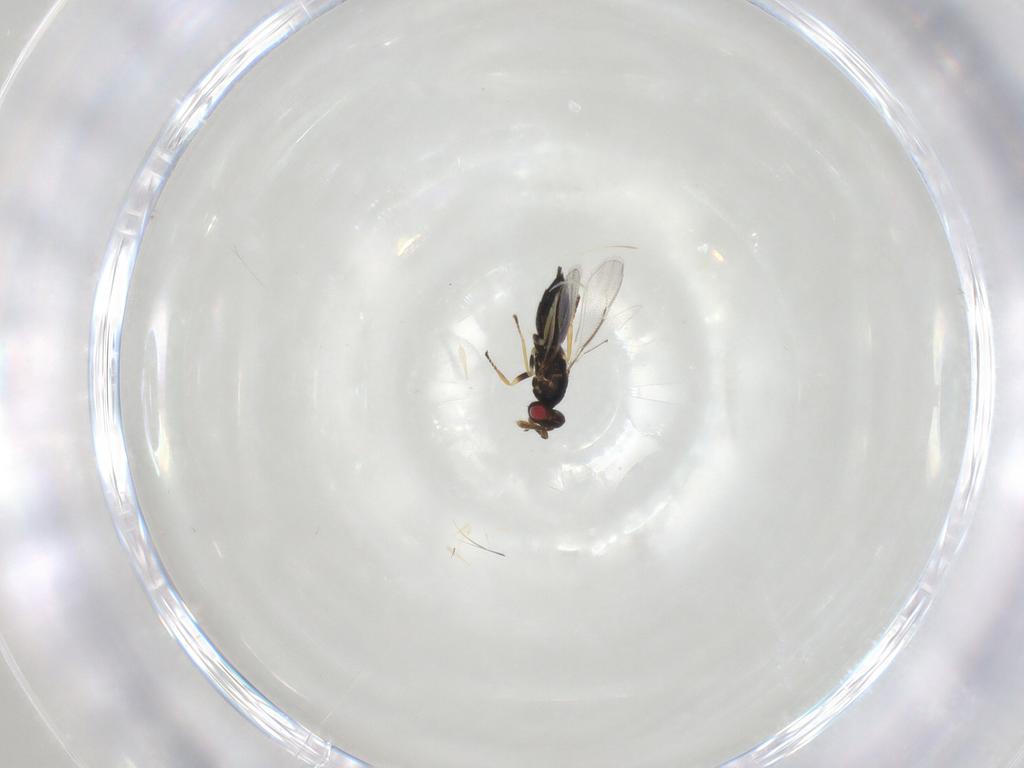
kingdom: Animalia
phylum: Arthropoda
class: Insecta
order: Hymenoptera
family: Eulophidae
